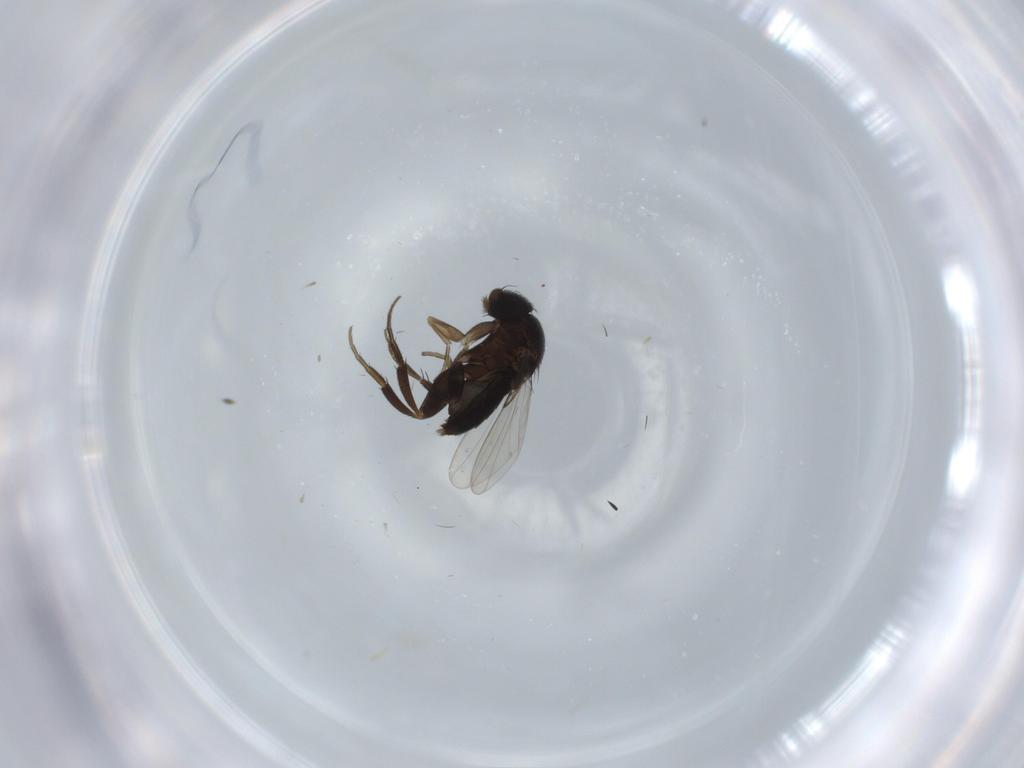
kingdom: Animalia
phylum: Arthropoda
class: Insecta
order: Diptera
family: Phoridae
